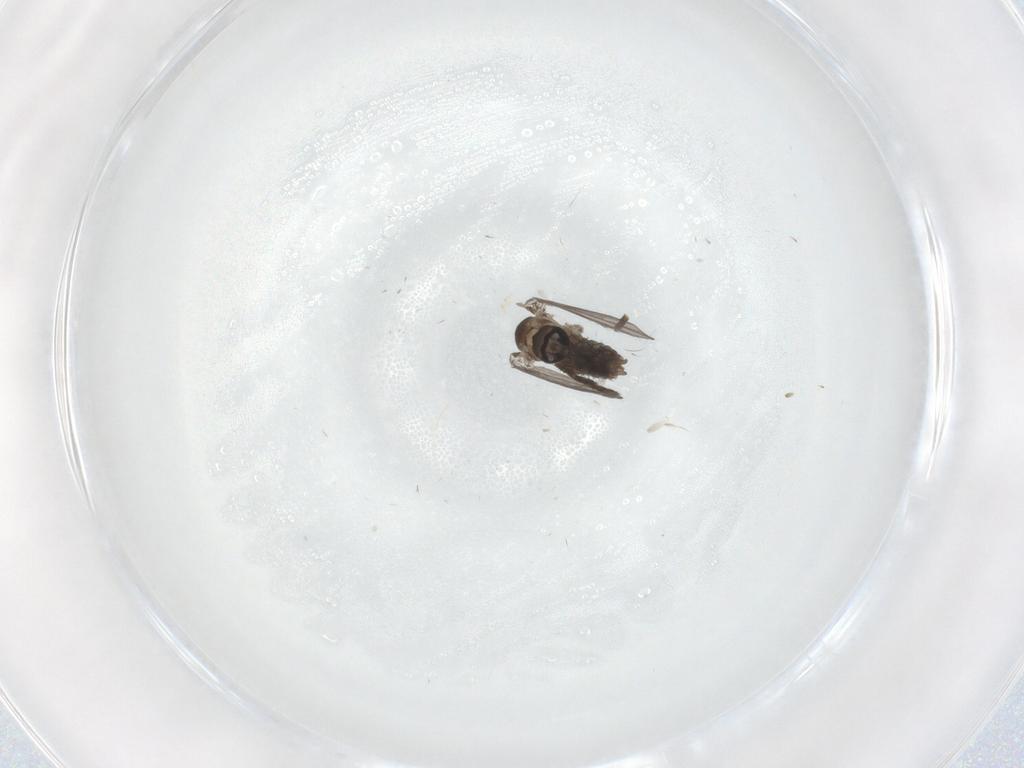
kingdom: Animalia
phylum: Arthropoda
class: Insecta
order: Diptera
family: Psychodidae
